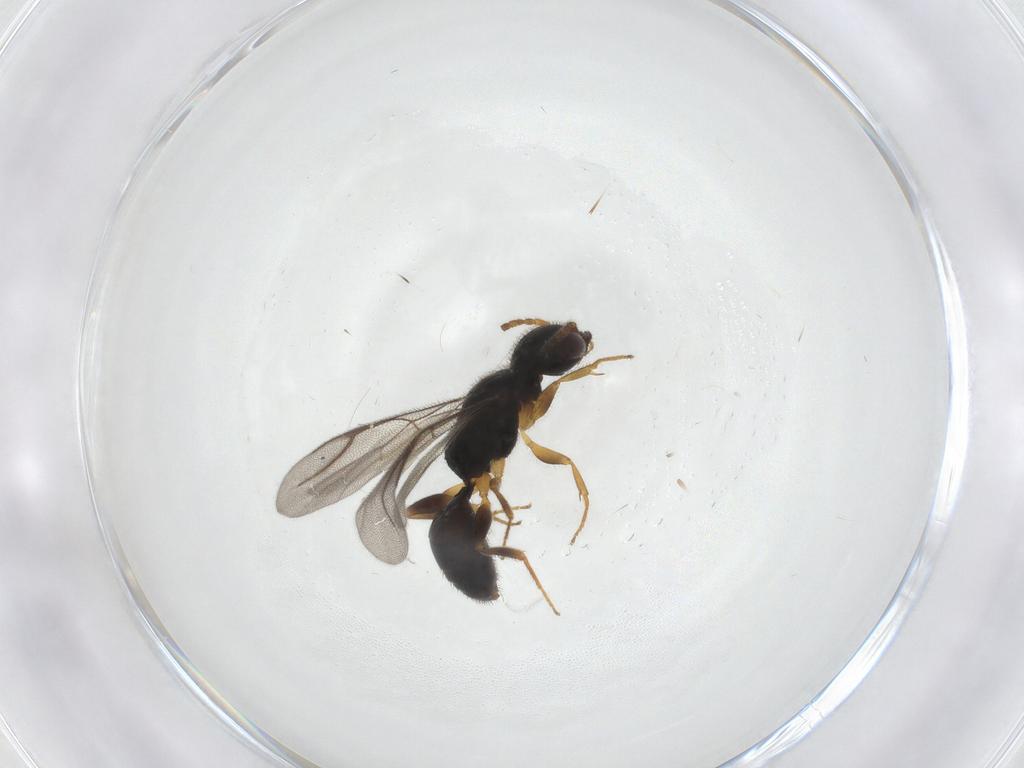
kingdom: Animalia
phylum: Arthropoda
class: Insecta
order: Hymenoptera
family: Bethylidae
